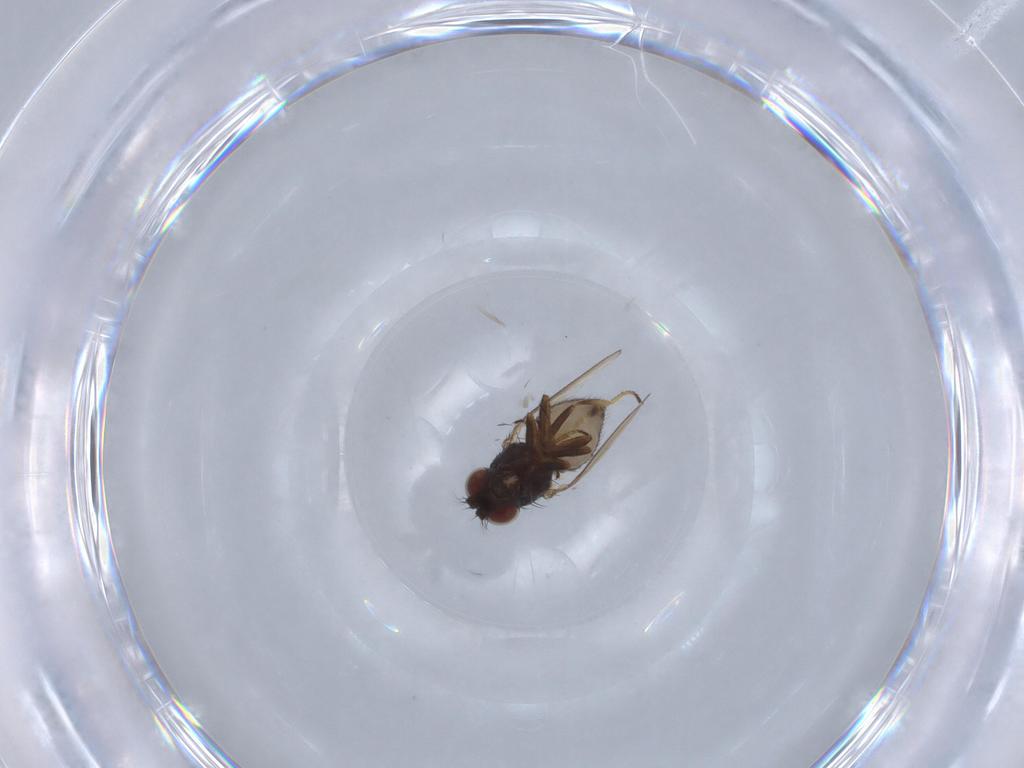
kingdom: Animalia
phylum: Arthropoda
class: Insecta
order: Diptera
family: Ephydridae
